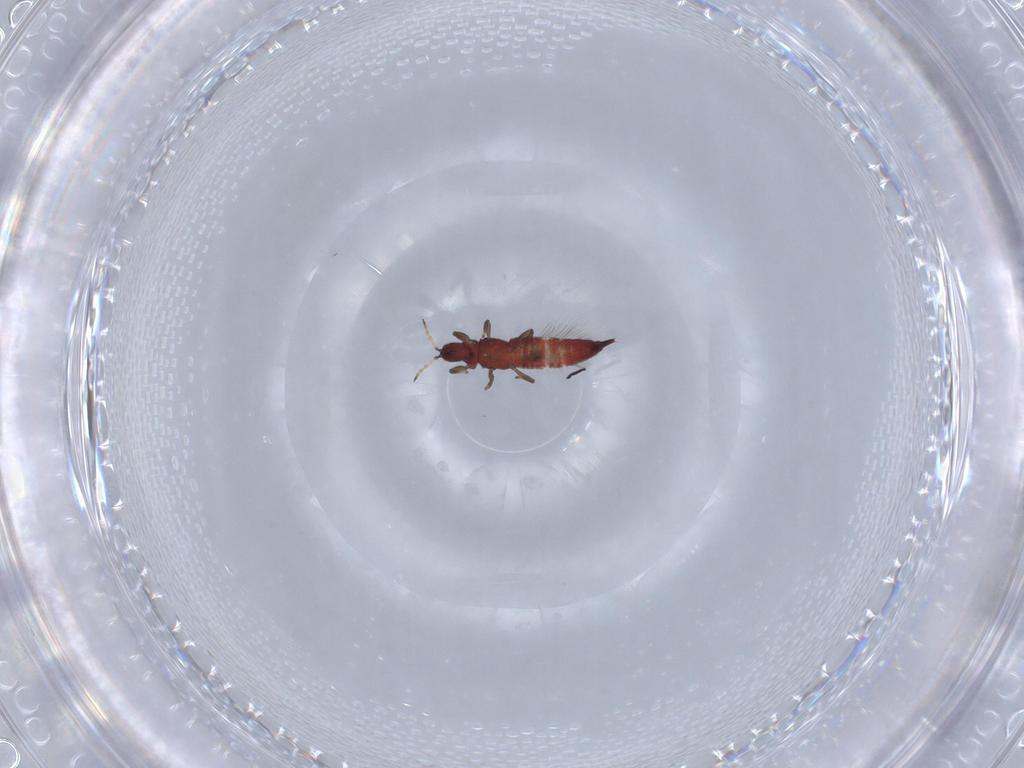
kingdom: Animalia
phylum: Arthropoda
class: Insecta
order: Thysanoptera
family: Phlaeothripidae
